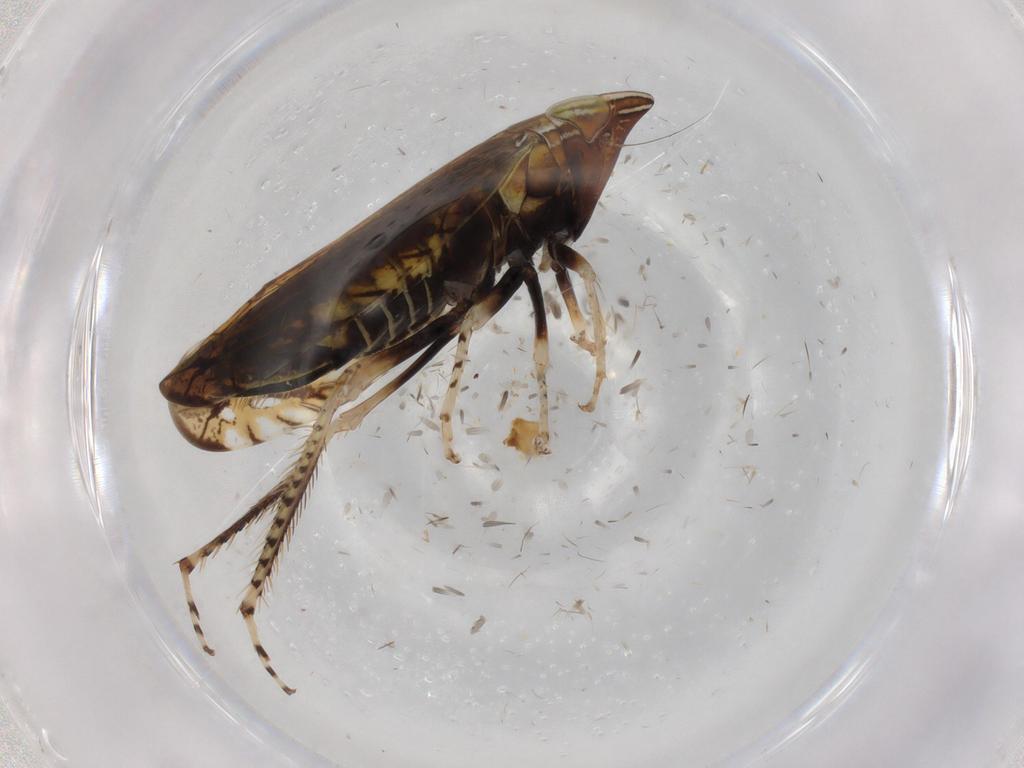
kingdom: Animalia
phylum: Arthropoda
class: Insecta
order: Hemiptera
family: Cicadellidae
